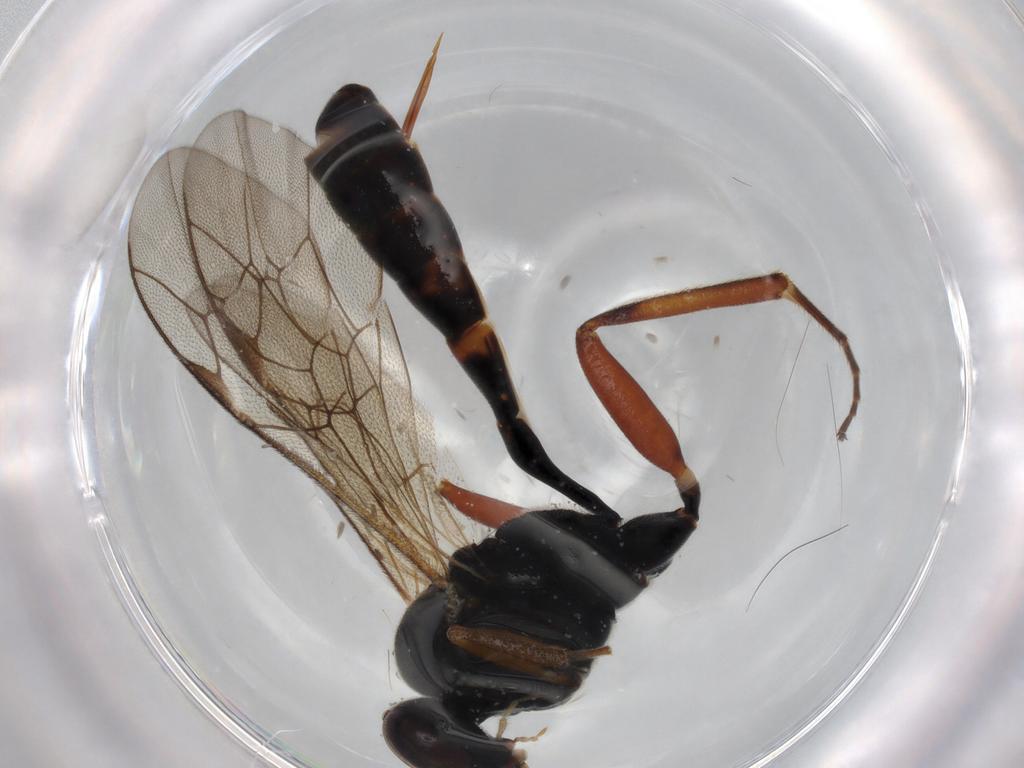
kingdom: Animalia
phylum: Arthropoda
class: Insecta
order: Hymenoptera
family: Ichneumonidae
